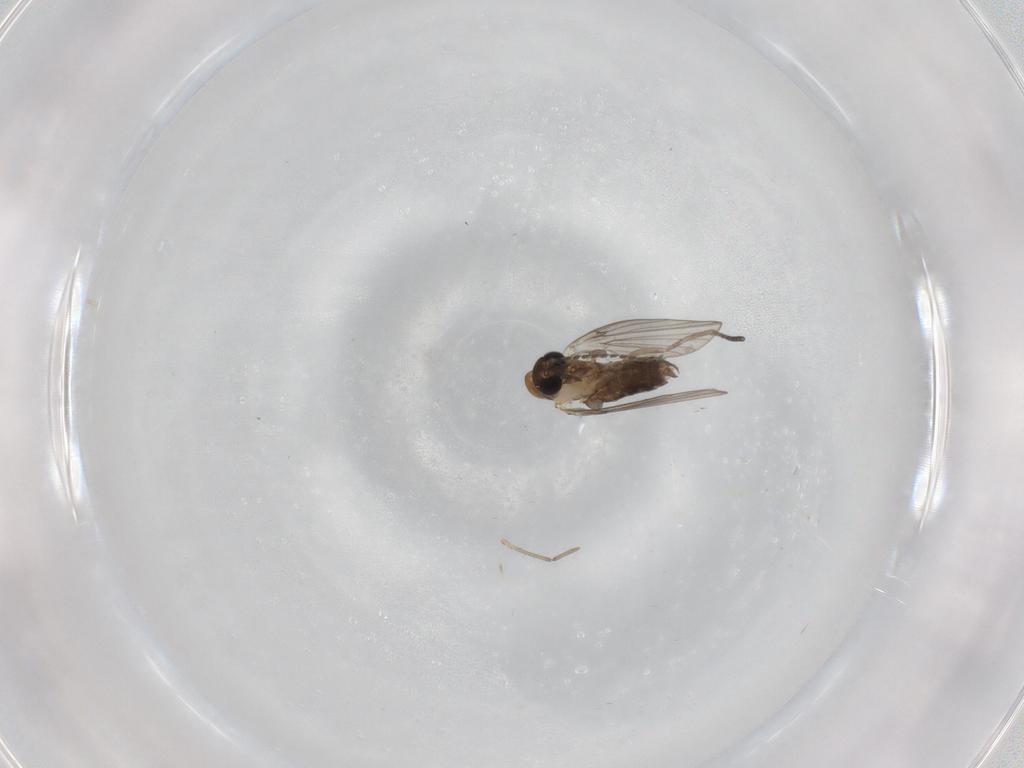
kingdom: Animalia
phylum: Arthropoda
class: Insecta
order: Diptera
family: Psychodidae
